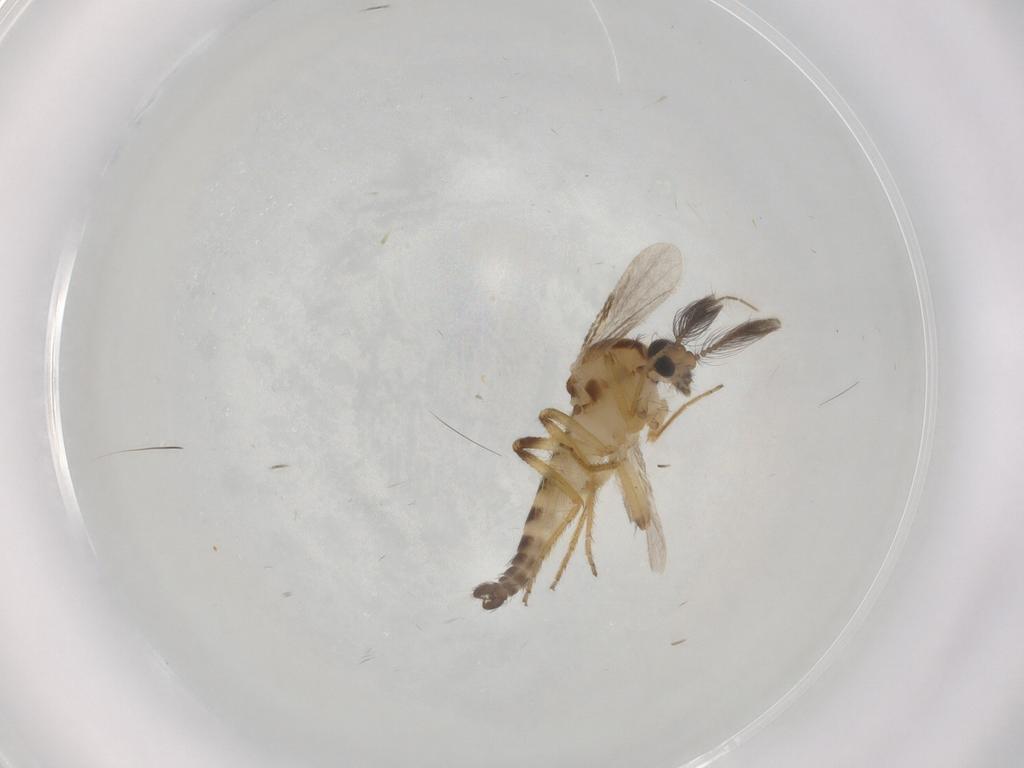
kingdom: Animalia
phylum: Arthropoda
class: Insecta
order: Diptera
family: Ceratopogonidae
